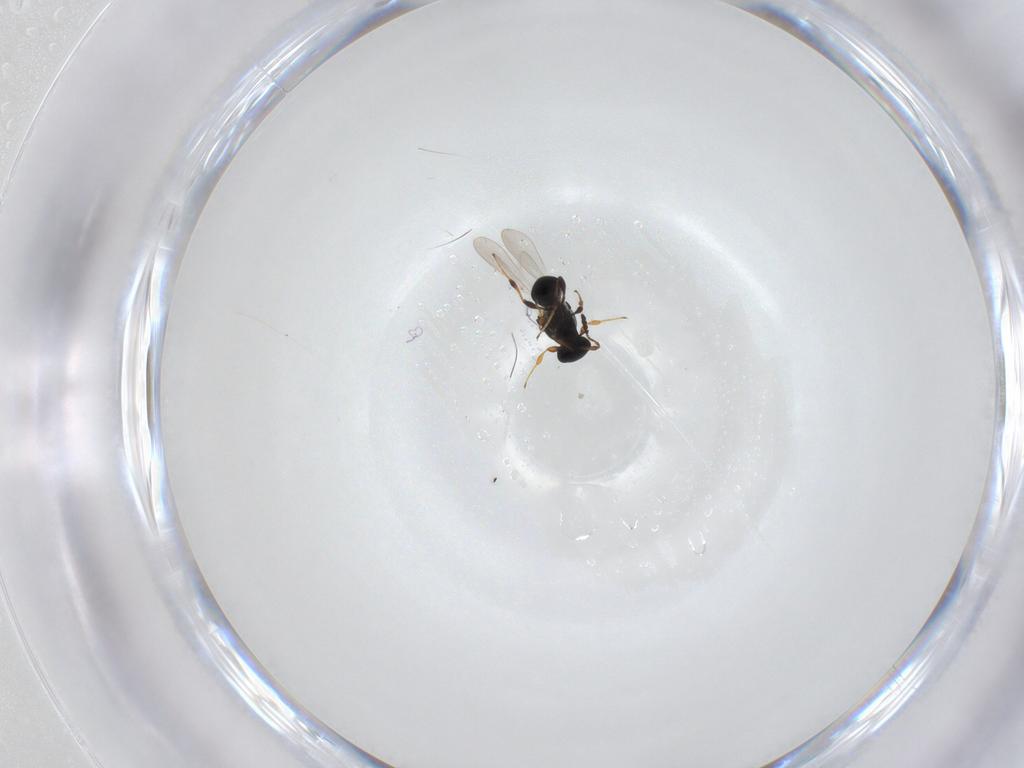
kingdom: Animalia
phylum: Arthropoda
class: Insecta
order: Hymenoptera
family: Platygastridae
